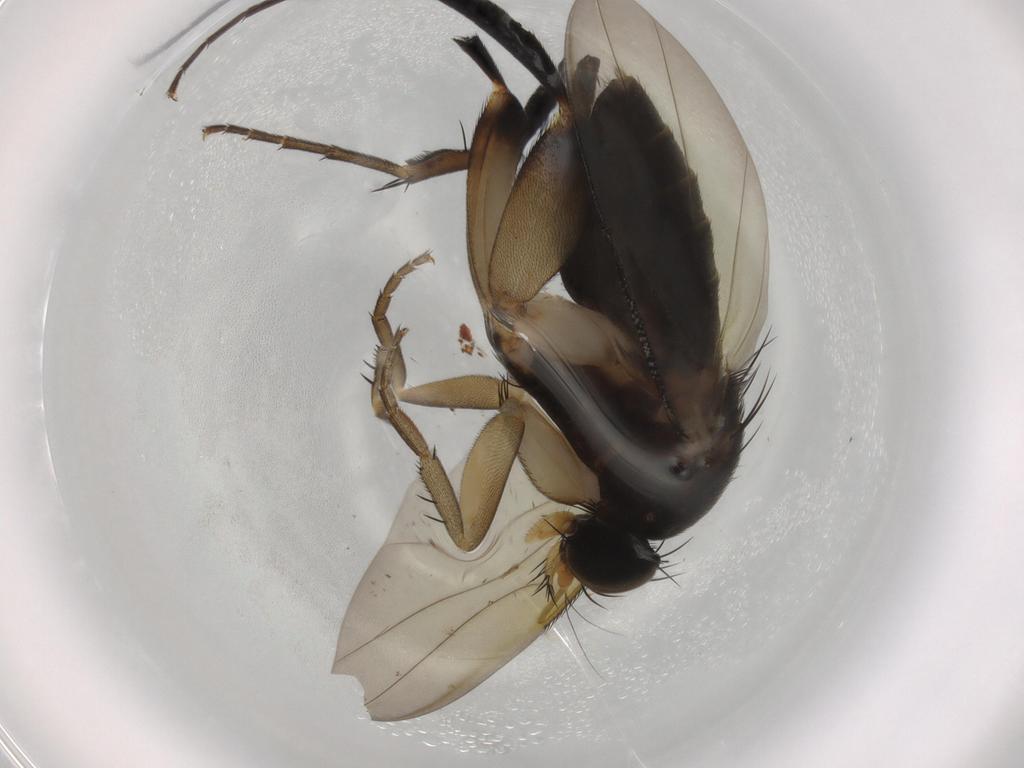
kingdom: Animalia
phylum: Arthropoda
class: Insecta
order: Diptera
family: Phoridae
